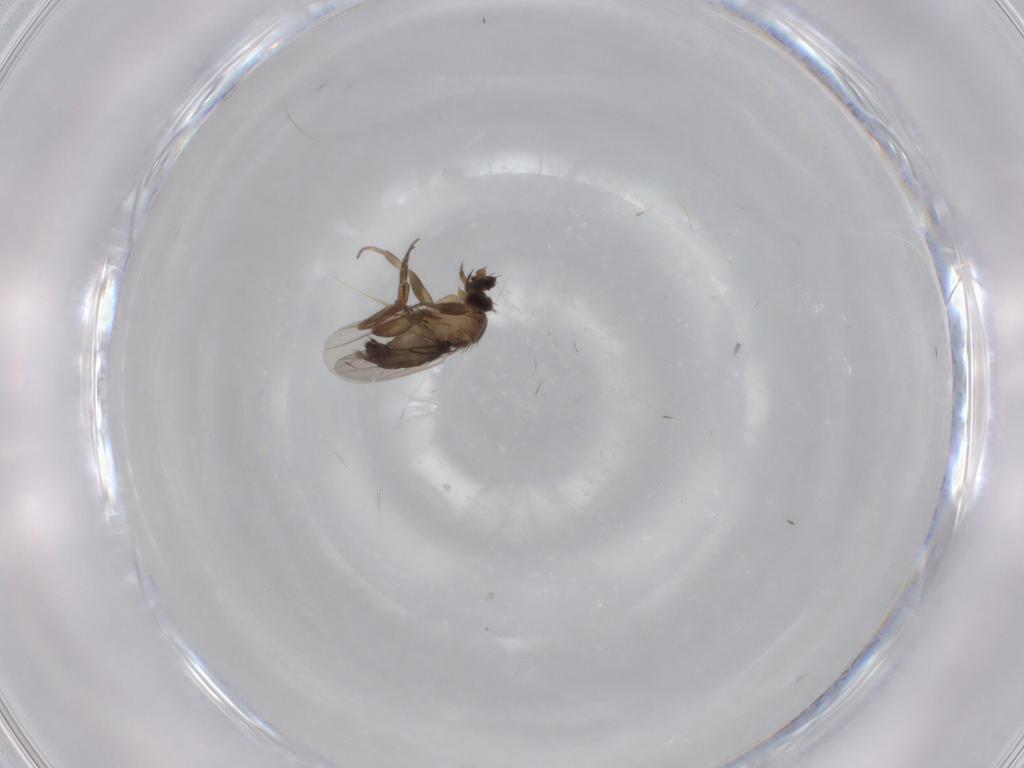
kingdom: Animalia
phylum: Arthropoda
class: Insecta
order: Diptera
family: Phoridae
